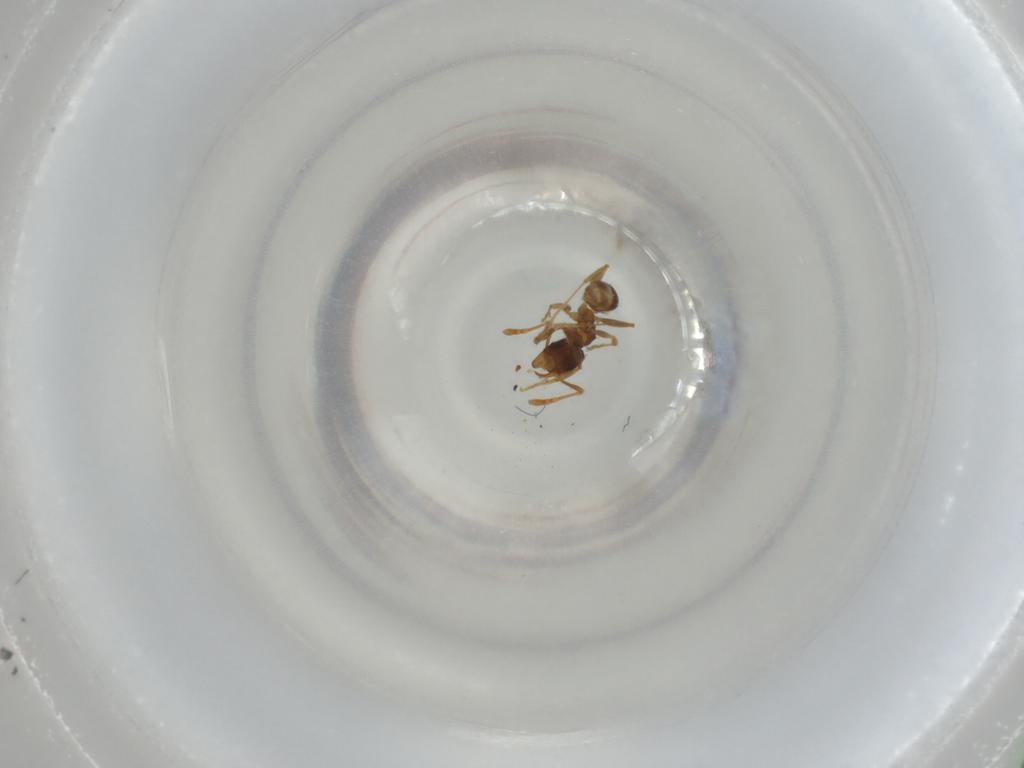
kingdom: Animalia
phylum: Arthropoda
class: Insecta
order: Hymenoptera
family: Formicidae
